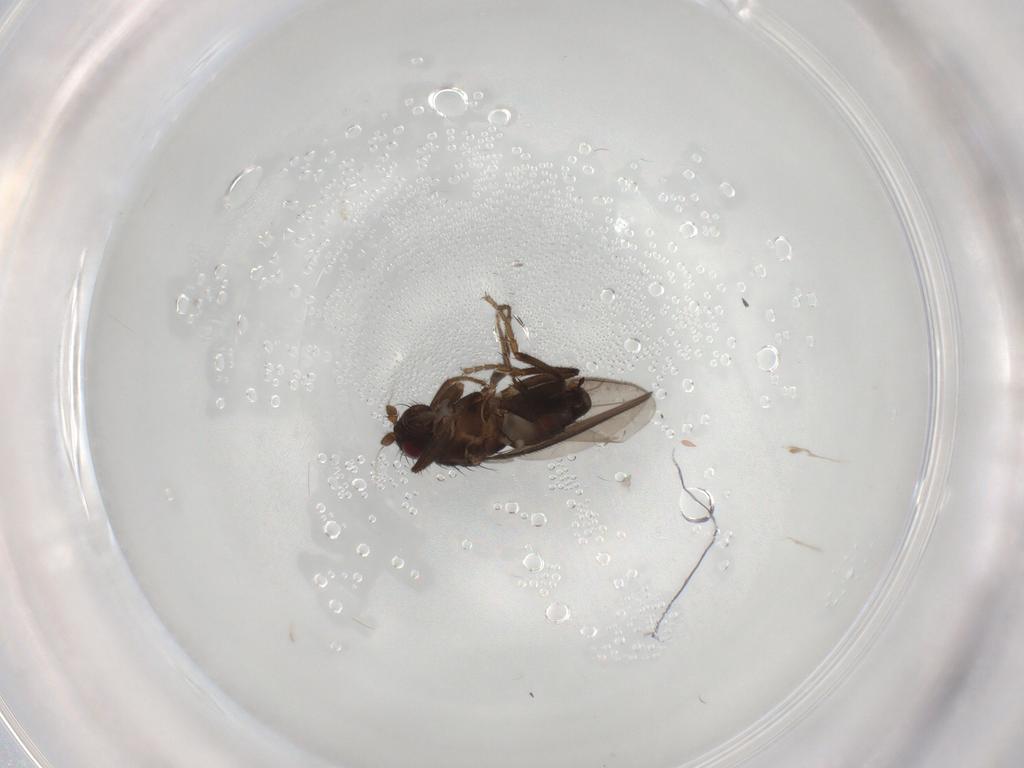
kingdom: Animalia
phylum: Arthropoda
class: Insecta
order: Diptera
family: Sphaeroceridae
